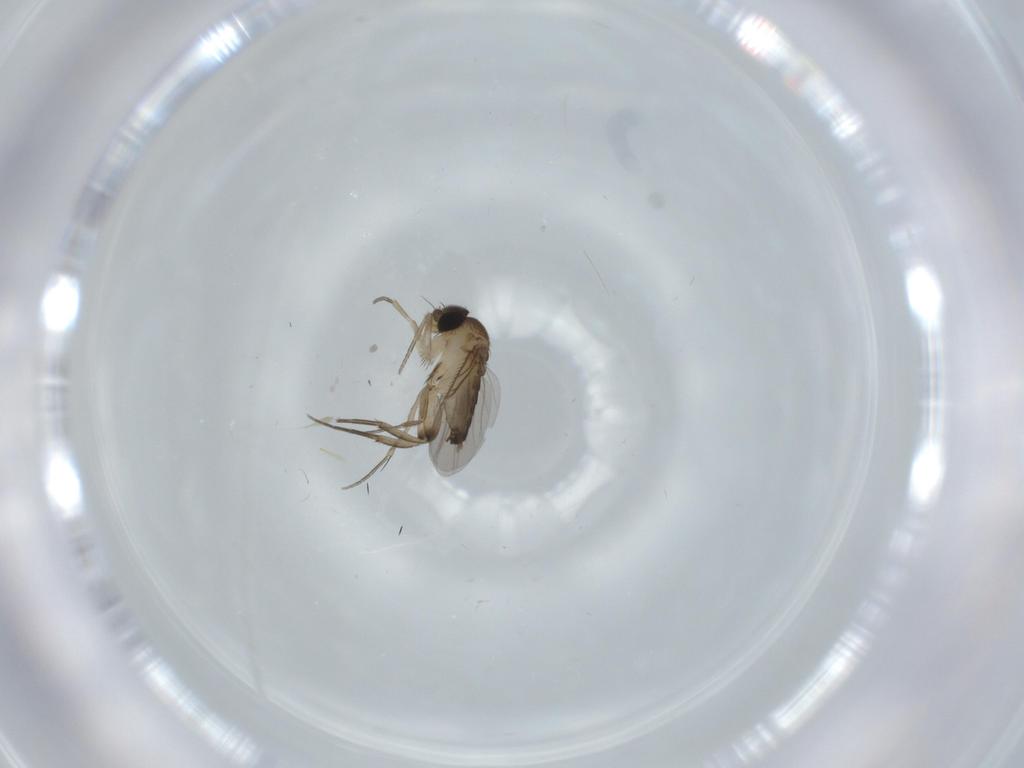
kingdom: Animalia
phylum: Arthropoda
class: Insecta
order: Diptera
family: Phoridae
